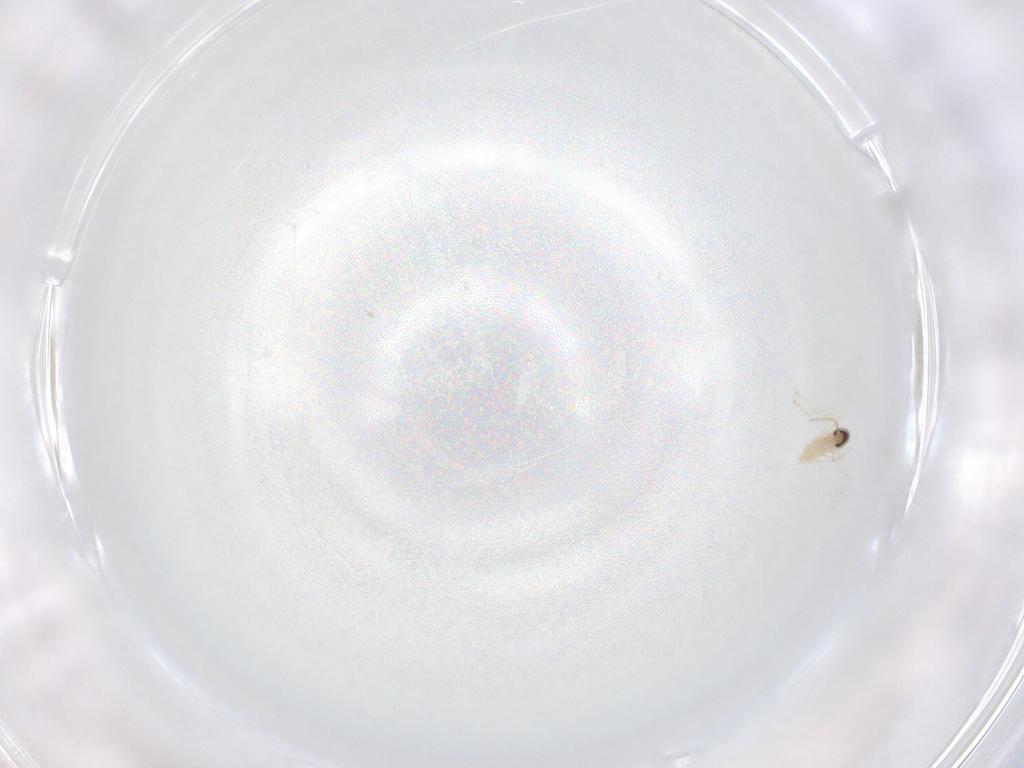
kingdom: Animalia
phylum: Arthropoda
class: Insecta
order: Diptera
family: Cecidomyiidae
